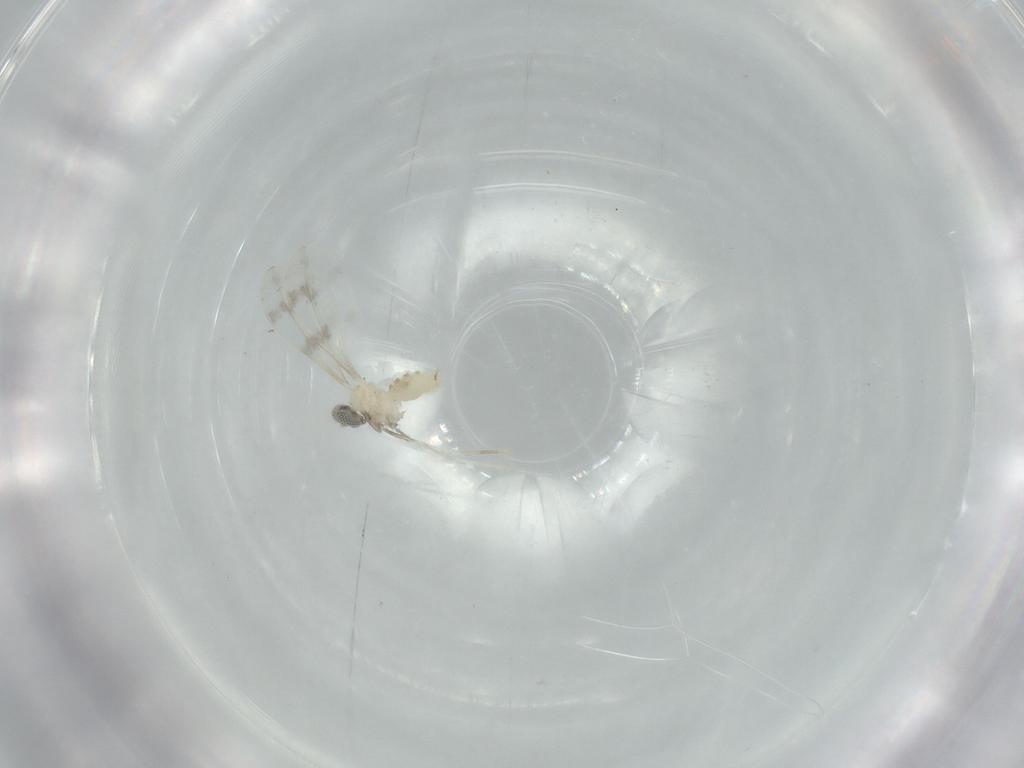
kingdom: Animalia
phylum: Arthropoda
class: Insecta
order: Diptera
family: Cecidomyiidae
